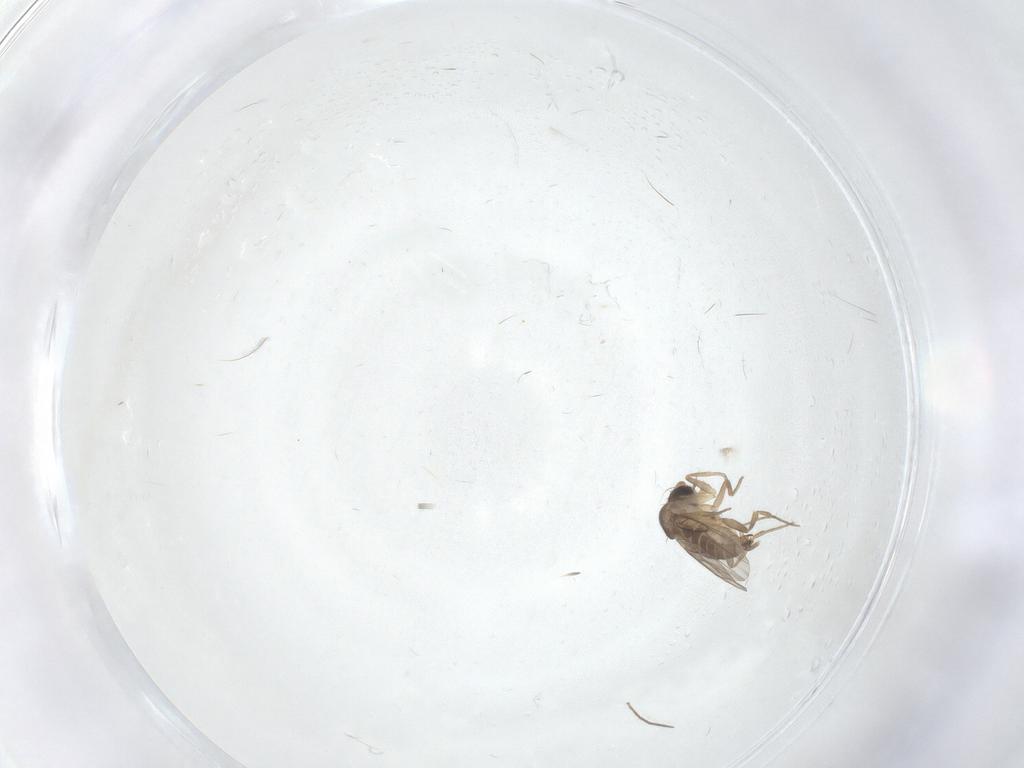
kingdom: Animalia
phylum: Arthropoda
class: Insecta
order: Diptera
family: Phoridae
